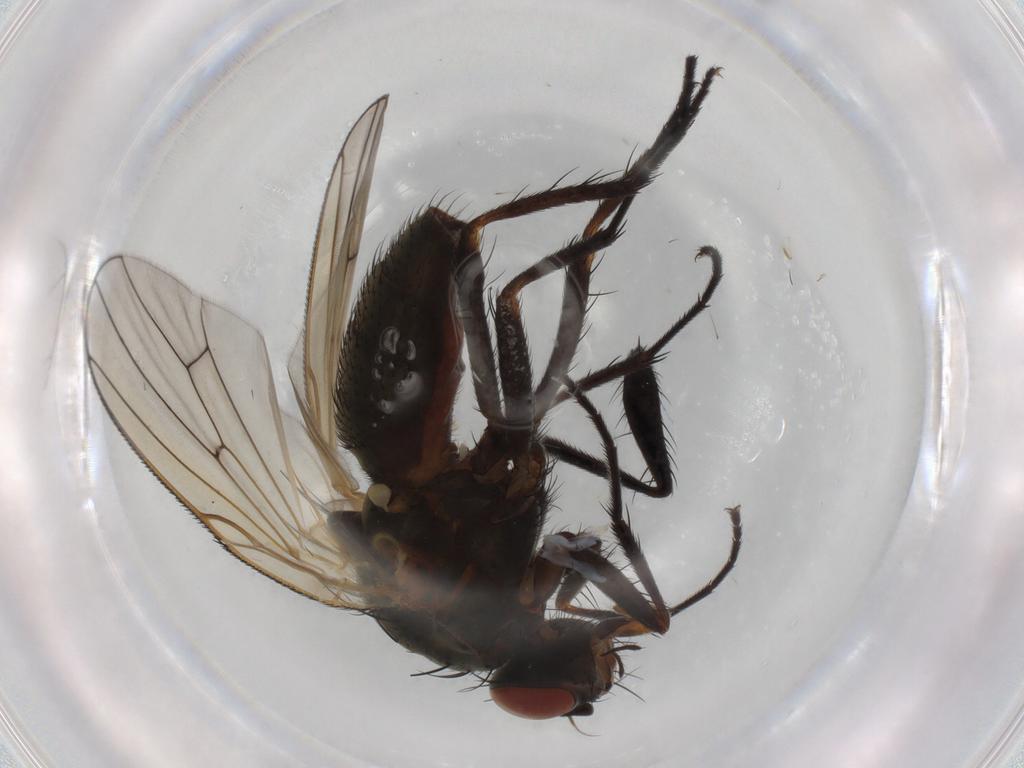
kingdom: Animalia
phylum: Arthropoda
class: Insecta
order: Diptera
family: Anthomyiidae
